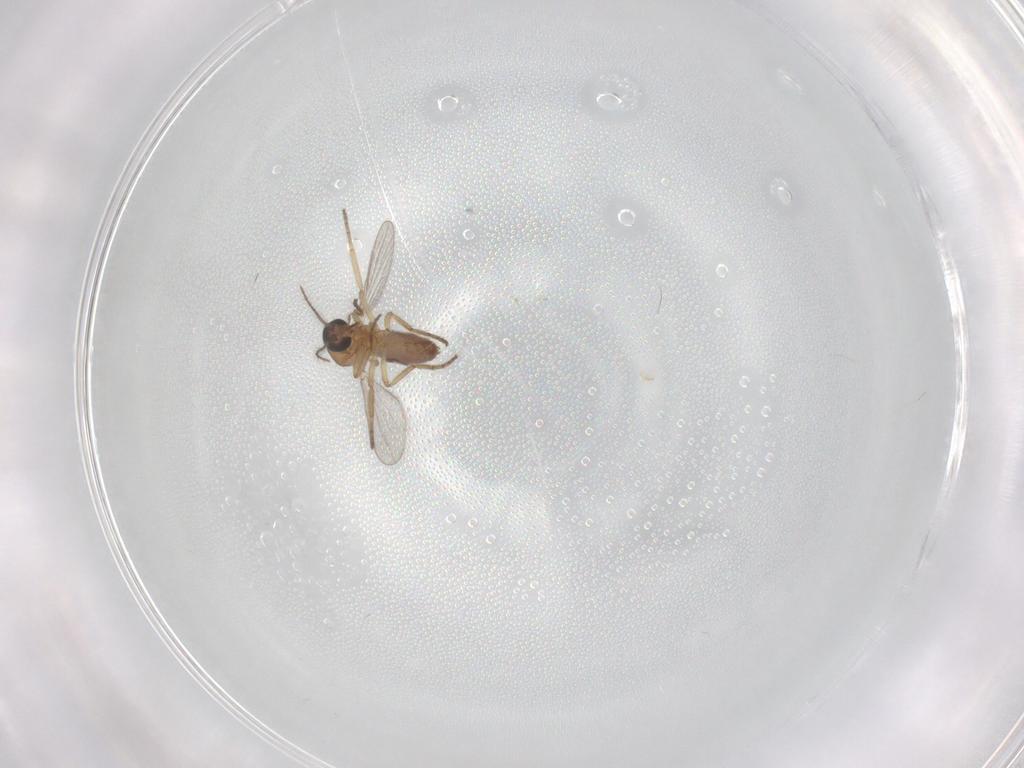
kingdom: Animalia
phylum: Arthropoda
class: Insecta
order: Diptera
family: Ceratopogonidae
